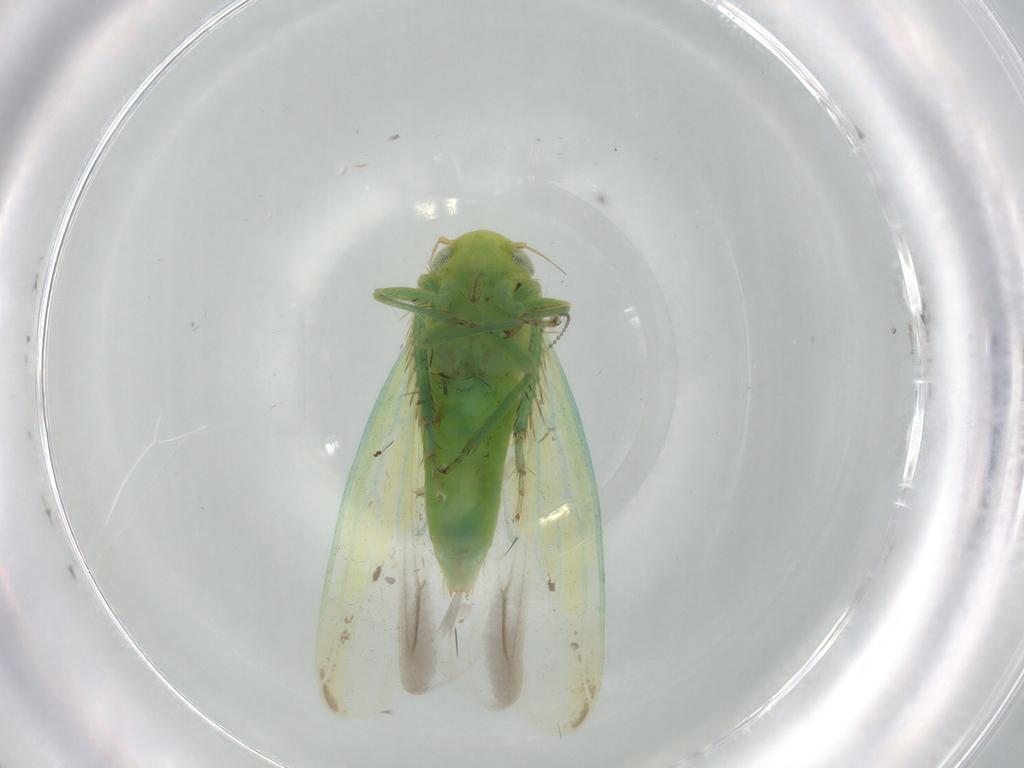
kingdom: Animalia
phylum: Arthropoda
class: Insecta
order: Hemiptera
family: Cicadellidae
